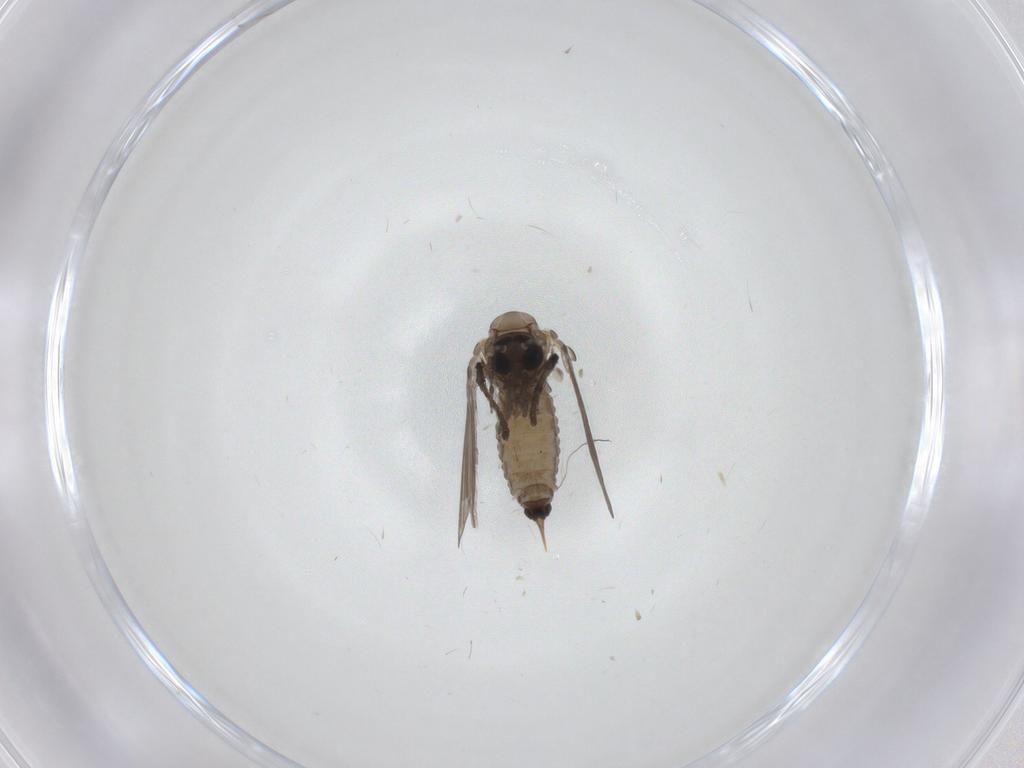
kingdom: Animalia
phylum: Arthropoda
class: Insecta
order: Diptera
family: Psychodidae
